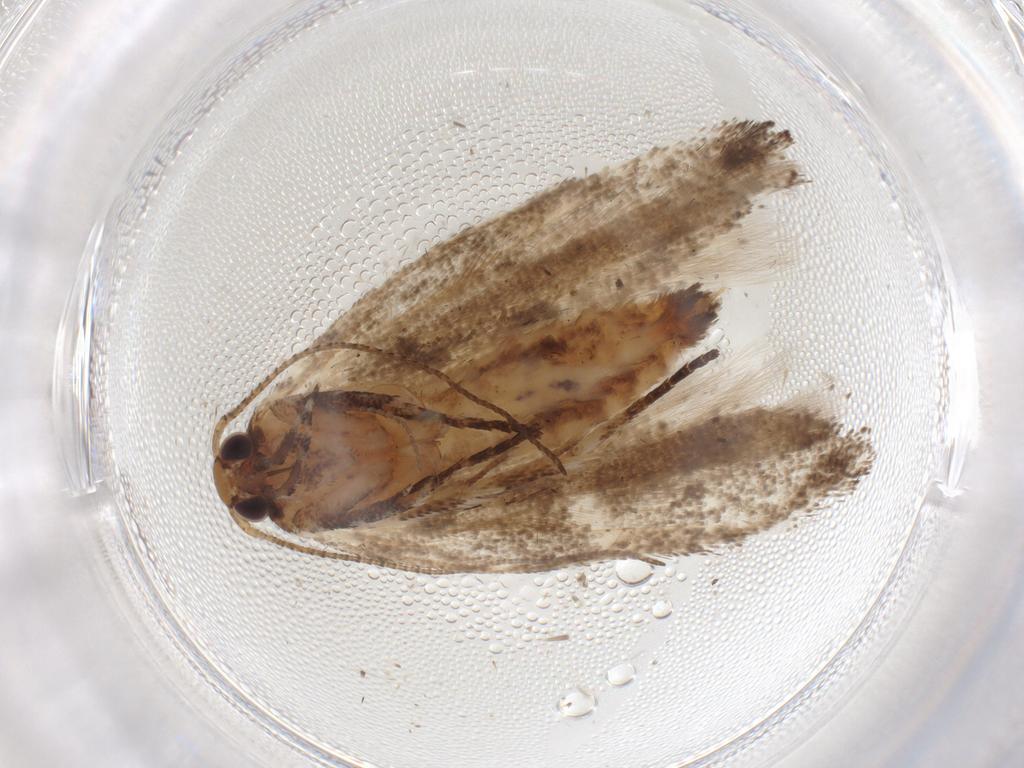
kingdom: Animalia
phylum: Arthropoda
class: Insecta
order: Lepidoptera
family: Gelechiidae
